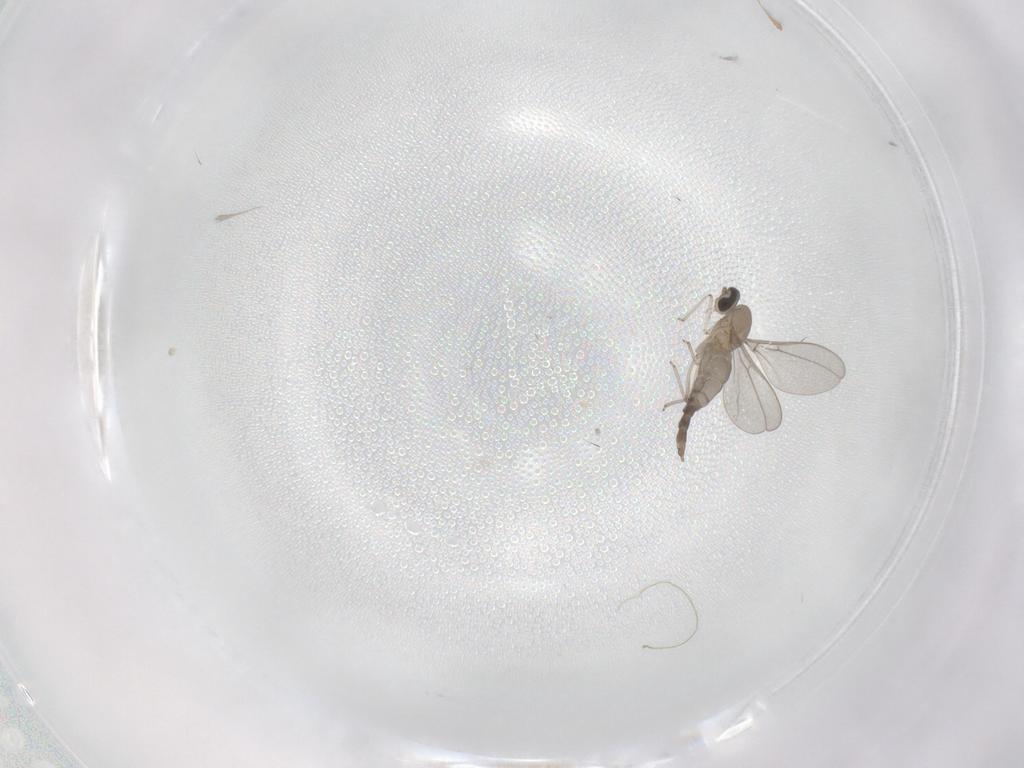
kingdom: Animalia
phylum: Arthropoda
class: Insecta
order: Diptera
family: Cecidomyiidae
